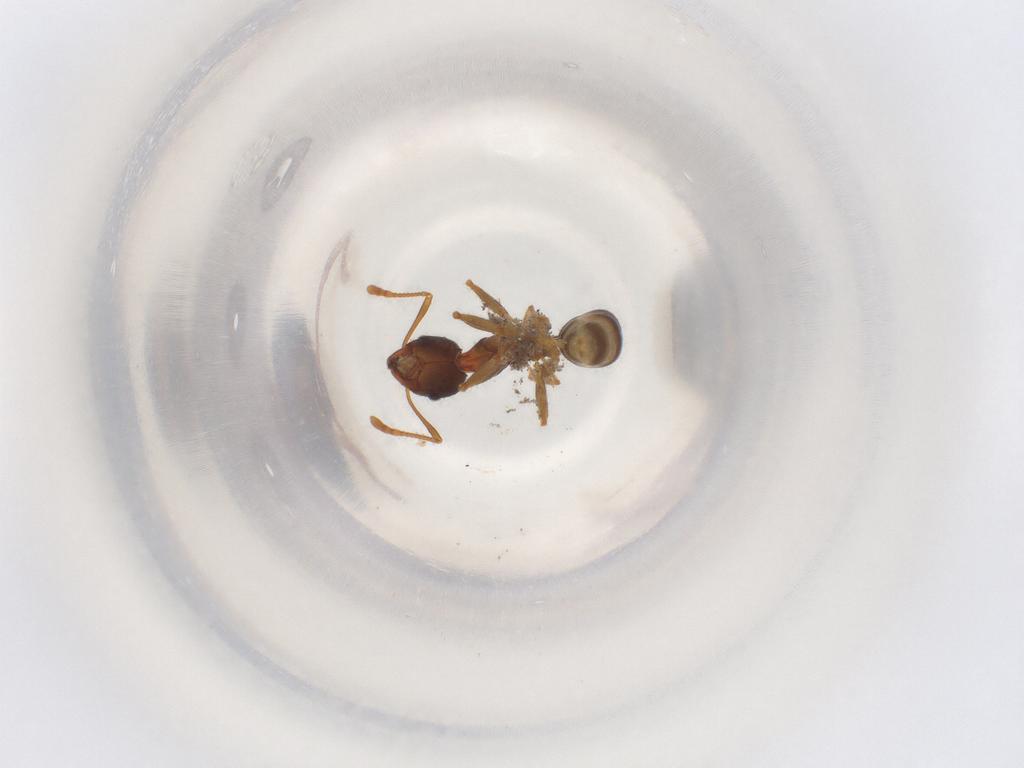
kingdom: Animalia
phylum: Arthropoda
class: Insecta
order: Hymenoptera
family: Formicidae
